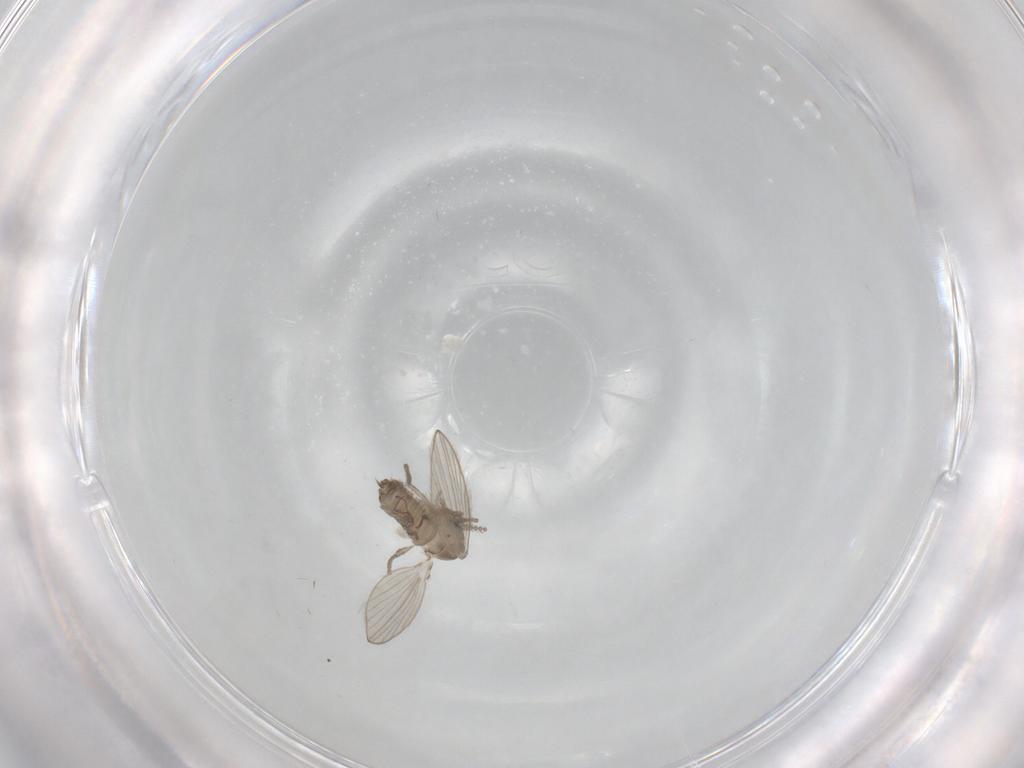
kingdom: Animalia
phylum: Arthropoda
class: Insecta
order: Diptera
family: Psychodidae
